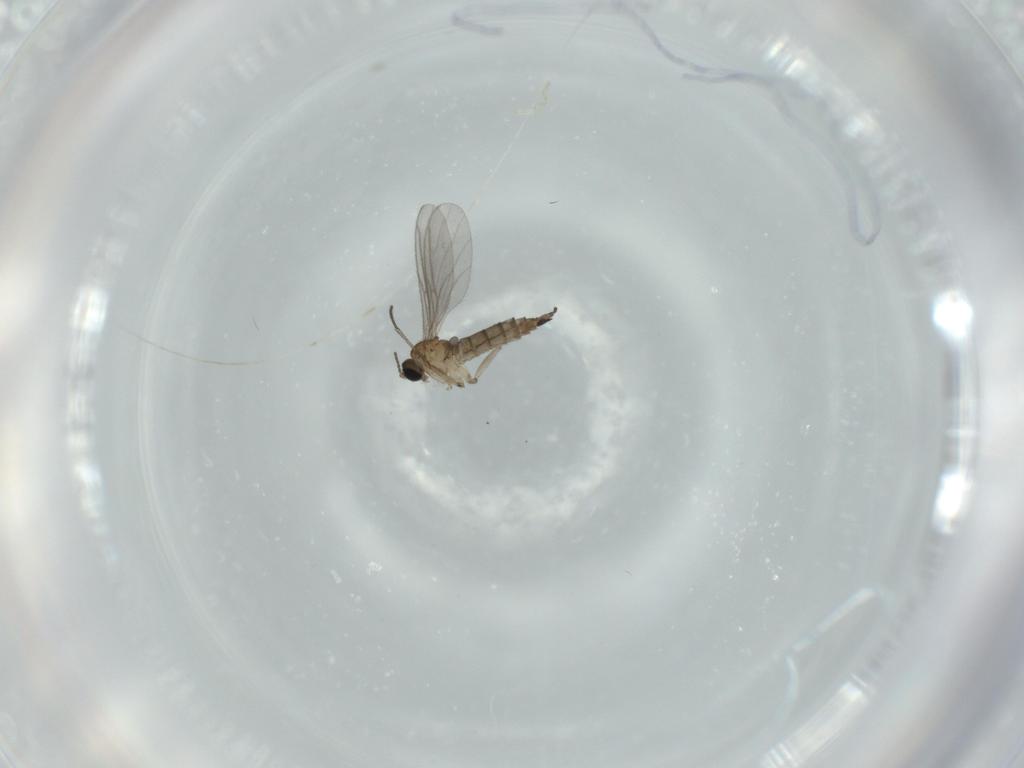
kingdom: Animalia
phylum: Arthropoda
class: Insecta
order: Diptera
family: Sciaridae
